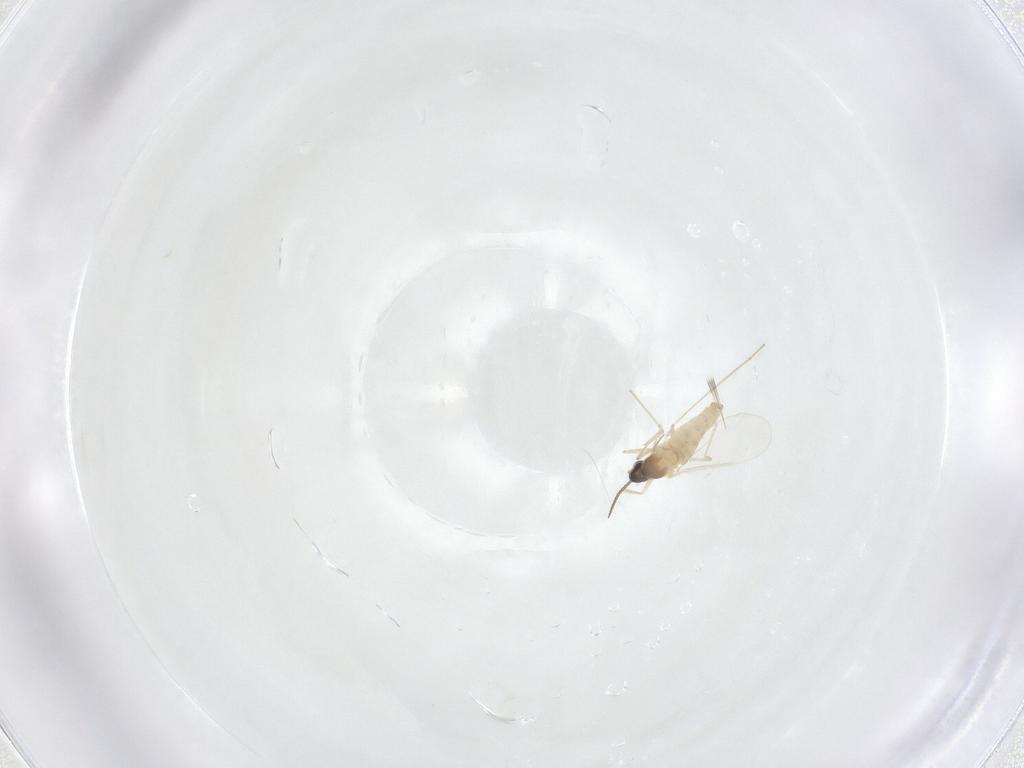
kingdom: Animalia
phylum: Arthropoda
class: Insecta
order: Diptera
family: Cecidomyiidae
